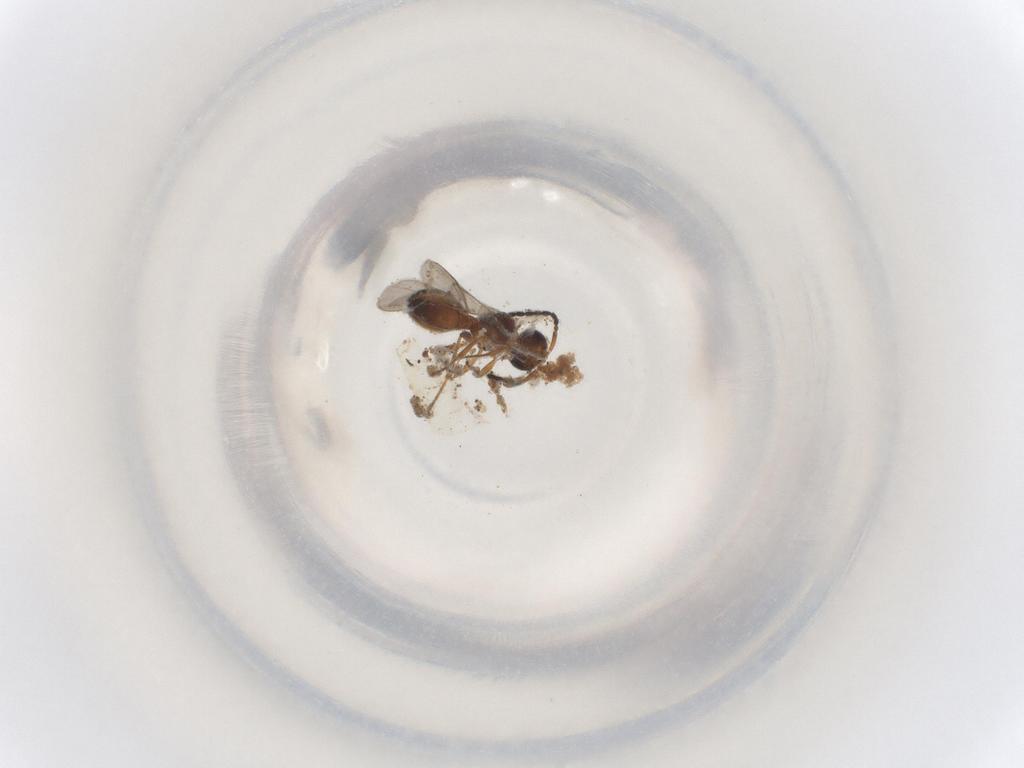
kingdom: Animalia
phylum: Arthropoda
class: Insecta
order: Hymenoptera
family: Scelionidae
